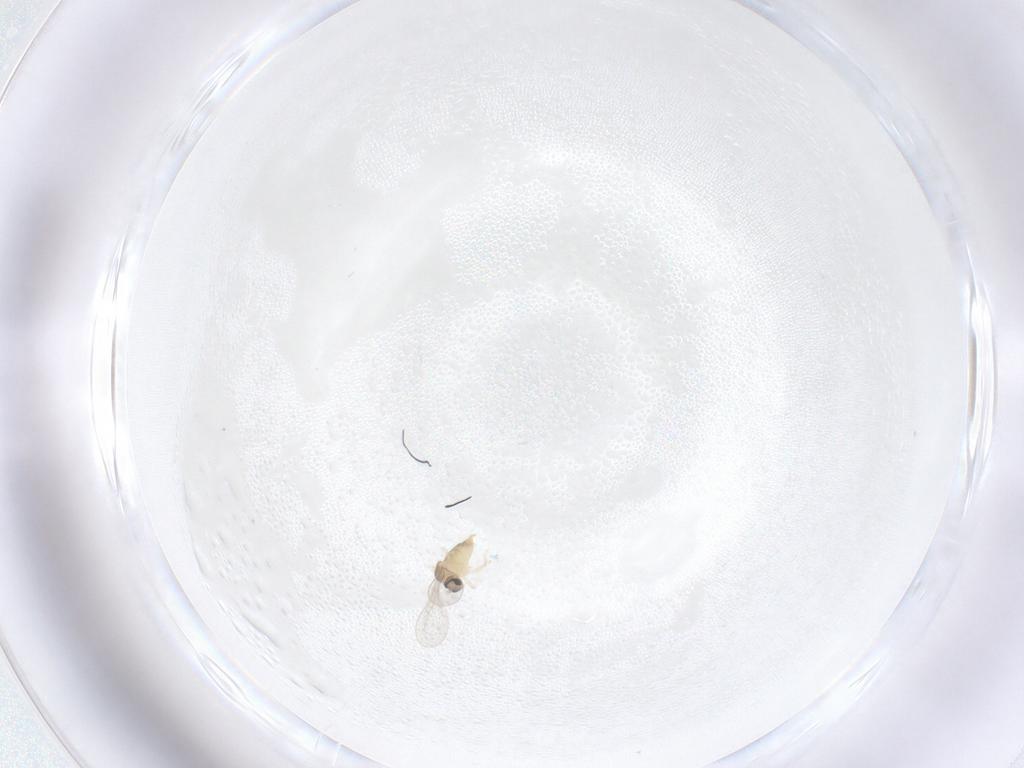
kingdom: Animalia
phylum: Arthropoda
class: Insecta
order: Diptera
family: Cecidomyiidae
